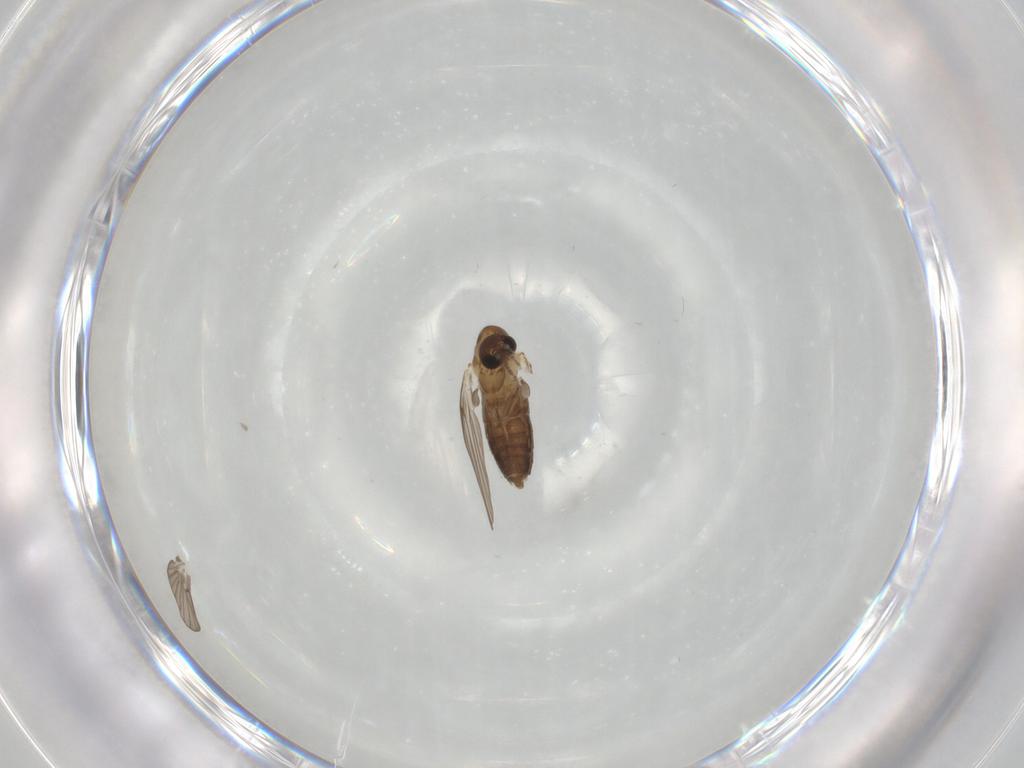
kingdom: Animalia
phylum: Arthropoda
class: Insecta
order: Diptera
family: Psychodidae
